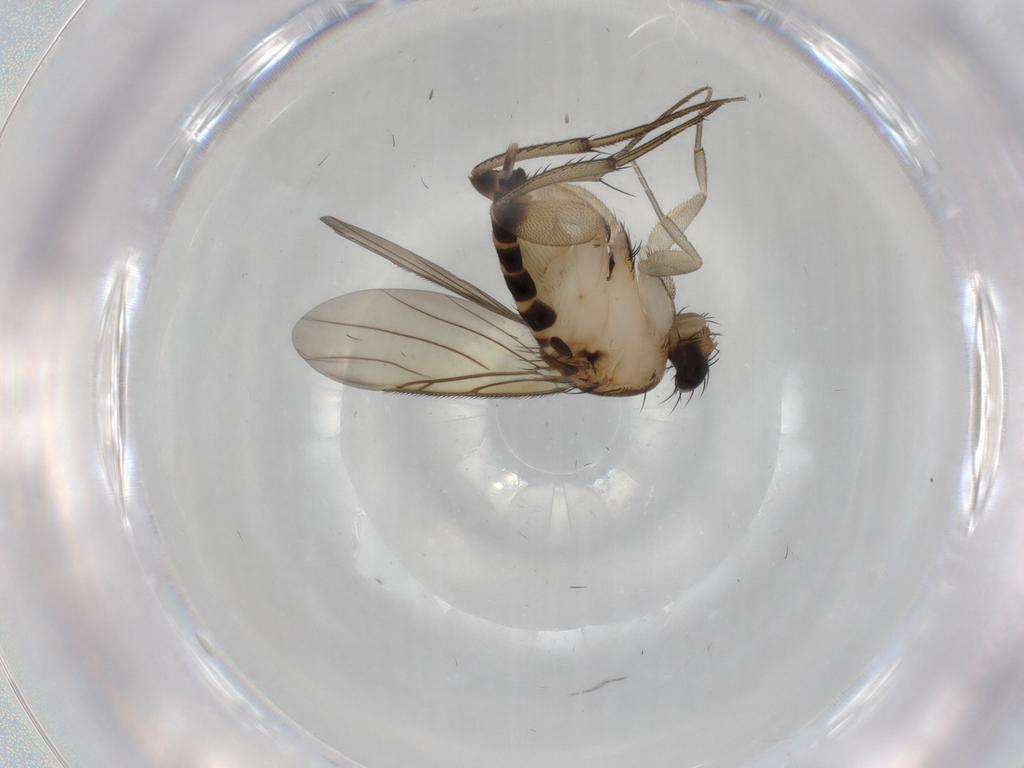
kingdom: Animalia
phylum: Arthropoda
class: Insecta
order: Diptera
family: Phoridae
